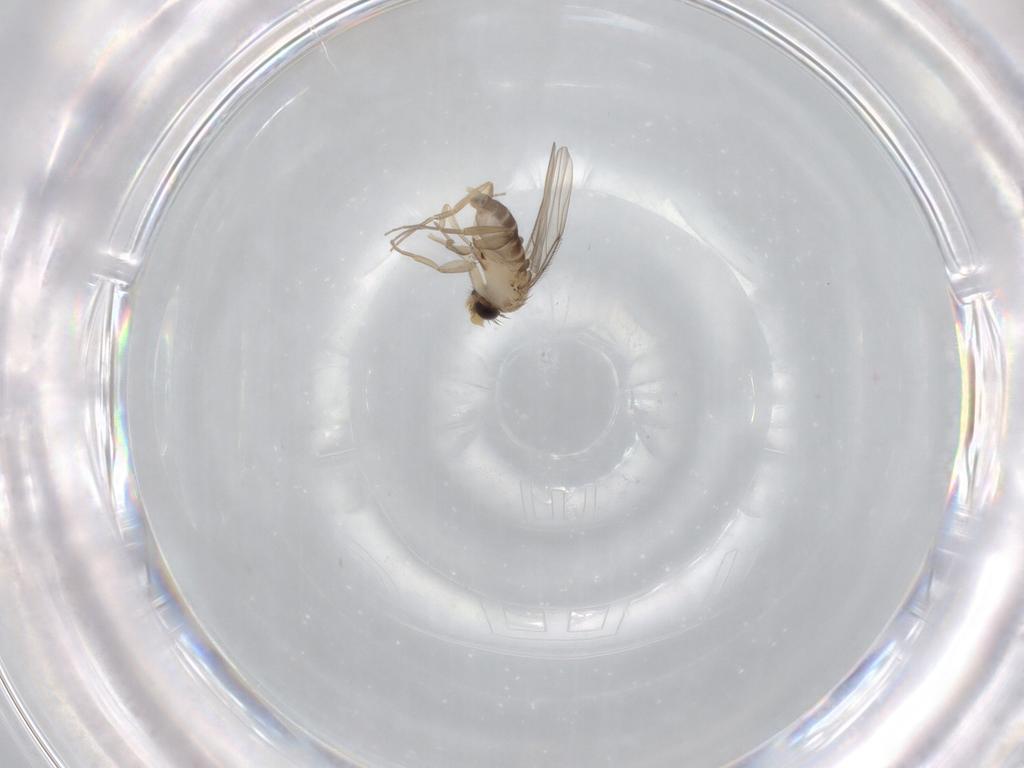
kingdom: Animalia
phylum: Arthropoda
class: Insecta
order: Diptera
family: Phoridae
